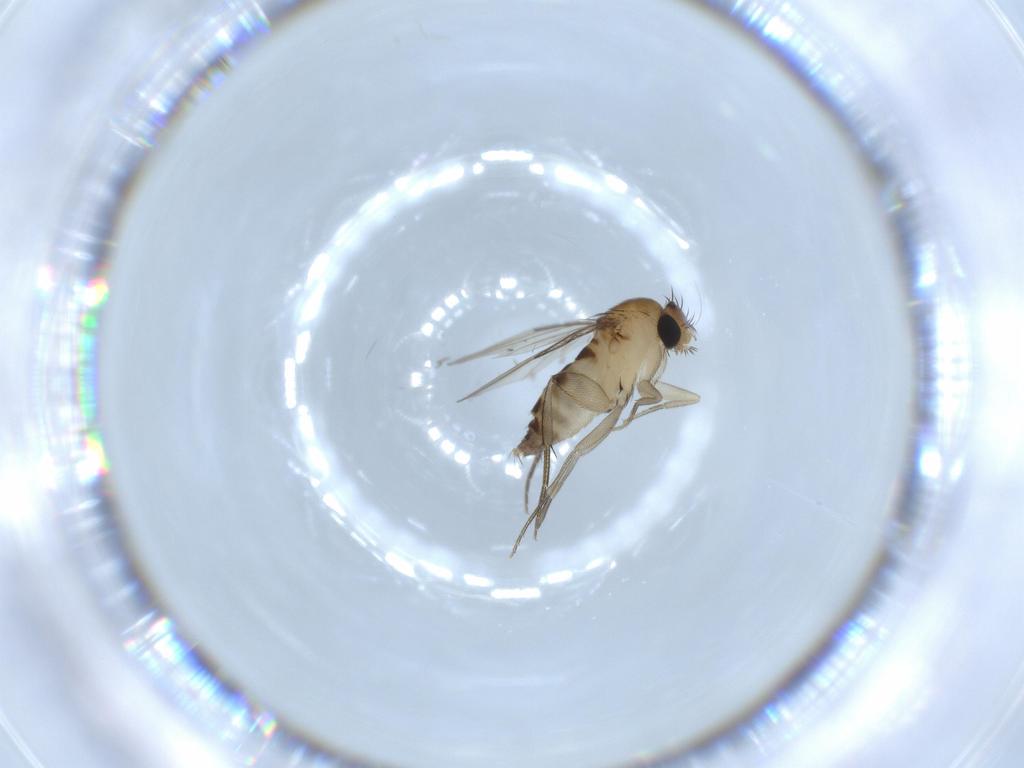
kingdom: Animalia
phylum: Arthropoda
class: Insecta
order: Diptera
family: Phoridae
